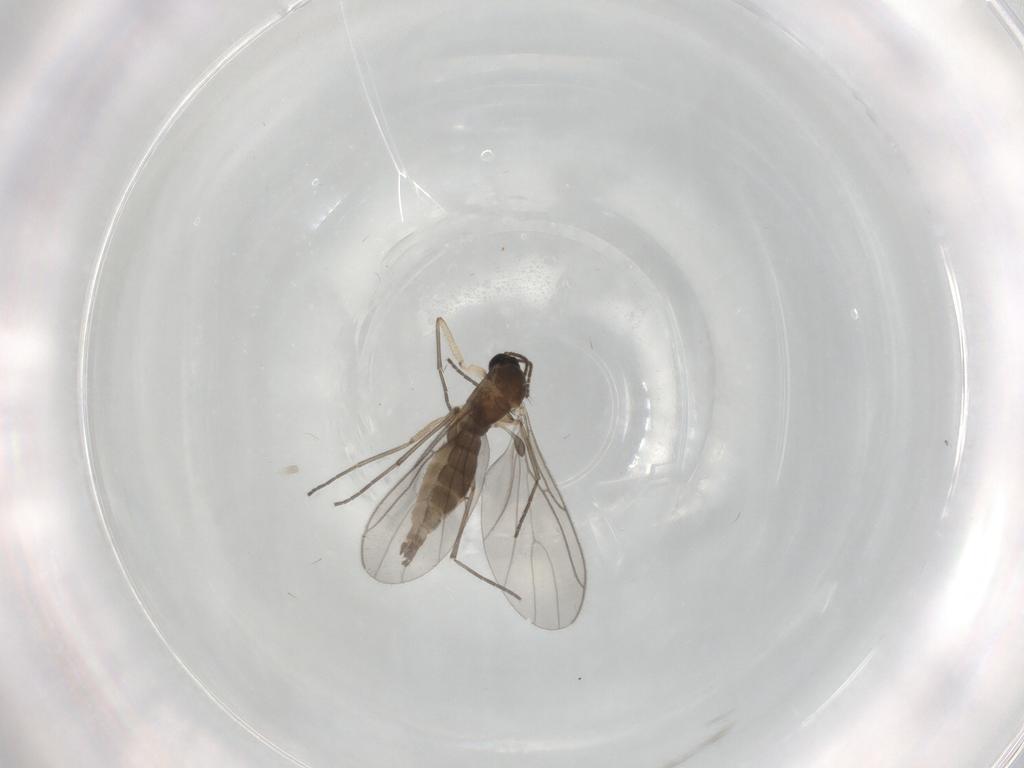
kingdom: Animalia
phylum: Arthropoda
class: Insecta
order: Diptera
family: Sciaridae
